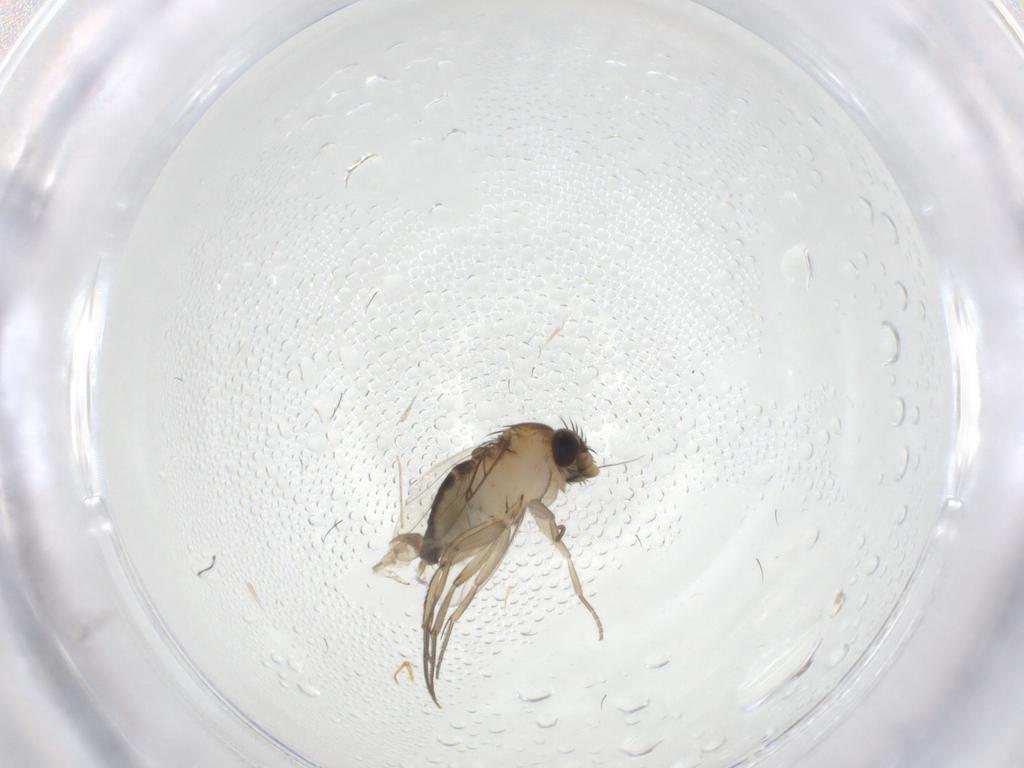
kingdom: Animalia
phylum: Arthropoda
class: Insecta
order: Diptera
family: Phoridae
